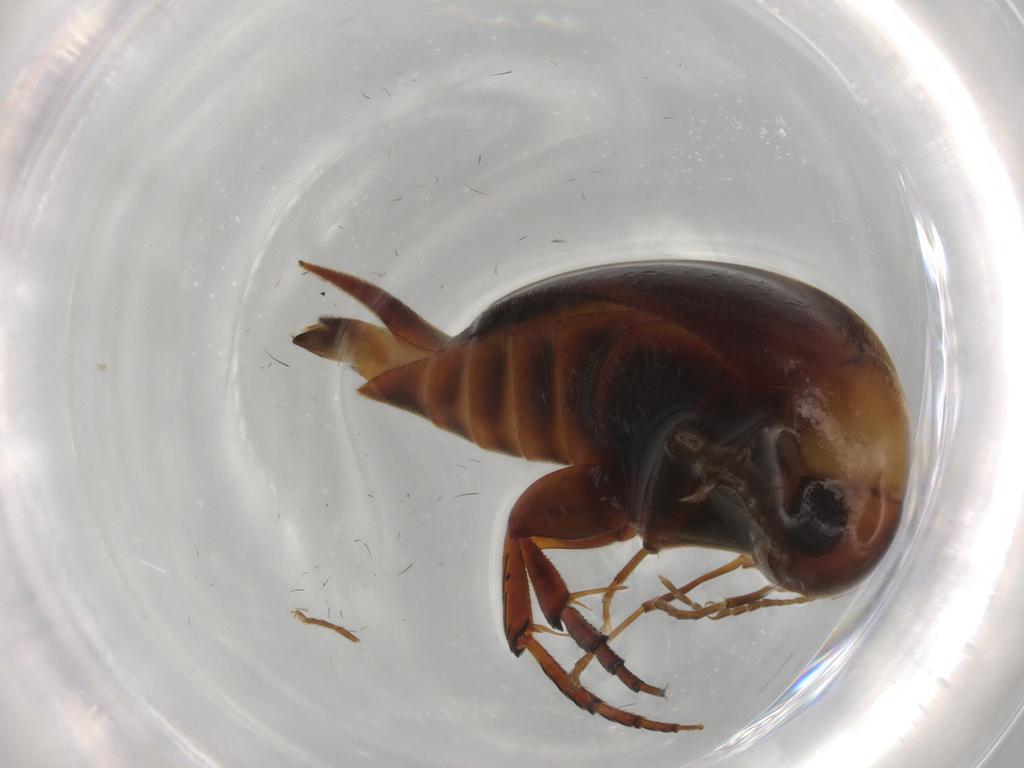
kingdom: Animalia
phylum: Arthropoda
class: Insecta
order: Coleoptera
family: Mordellidae
